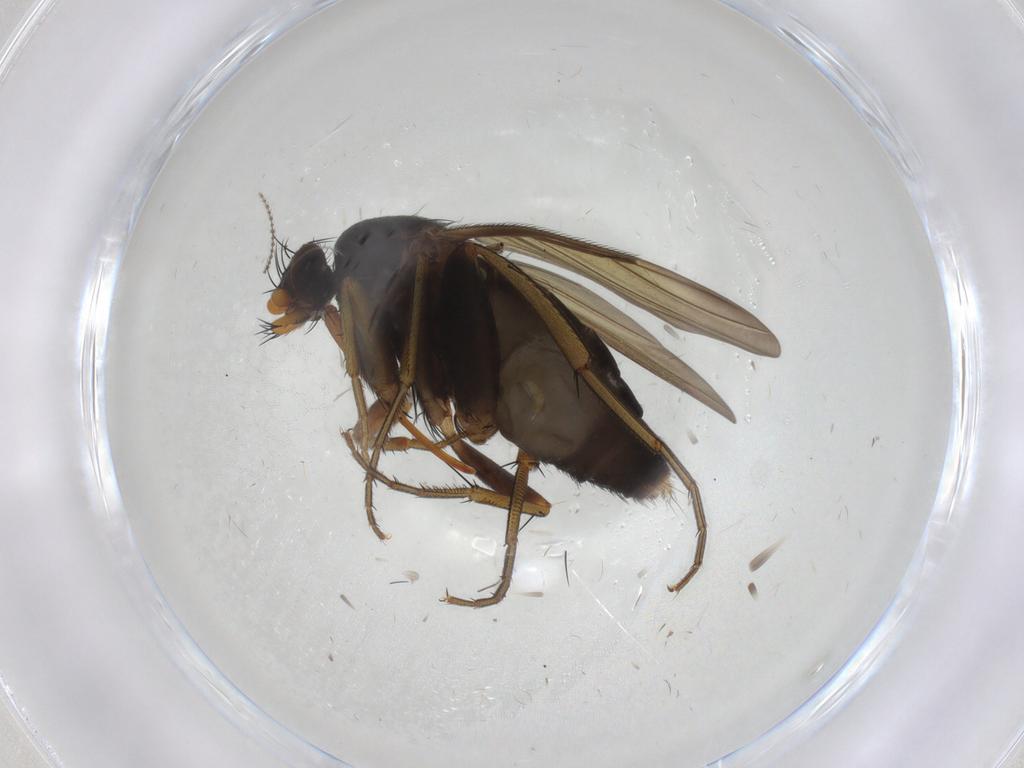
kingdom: Animalia
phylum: Arthropoda
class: Insecta
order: Diptera
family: Phoridae
